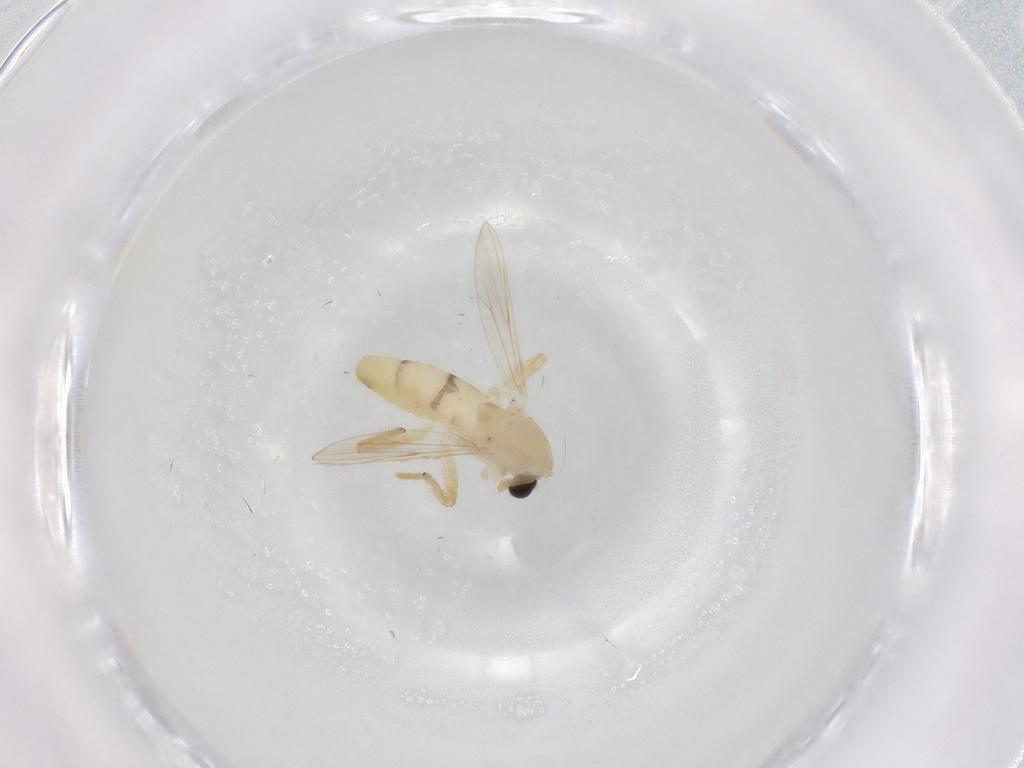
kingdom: Animalia
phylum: Arthropoda
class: Insecta
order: Diptera
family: Chironomidae
